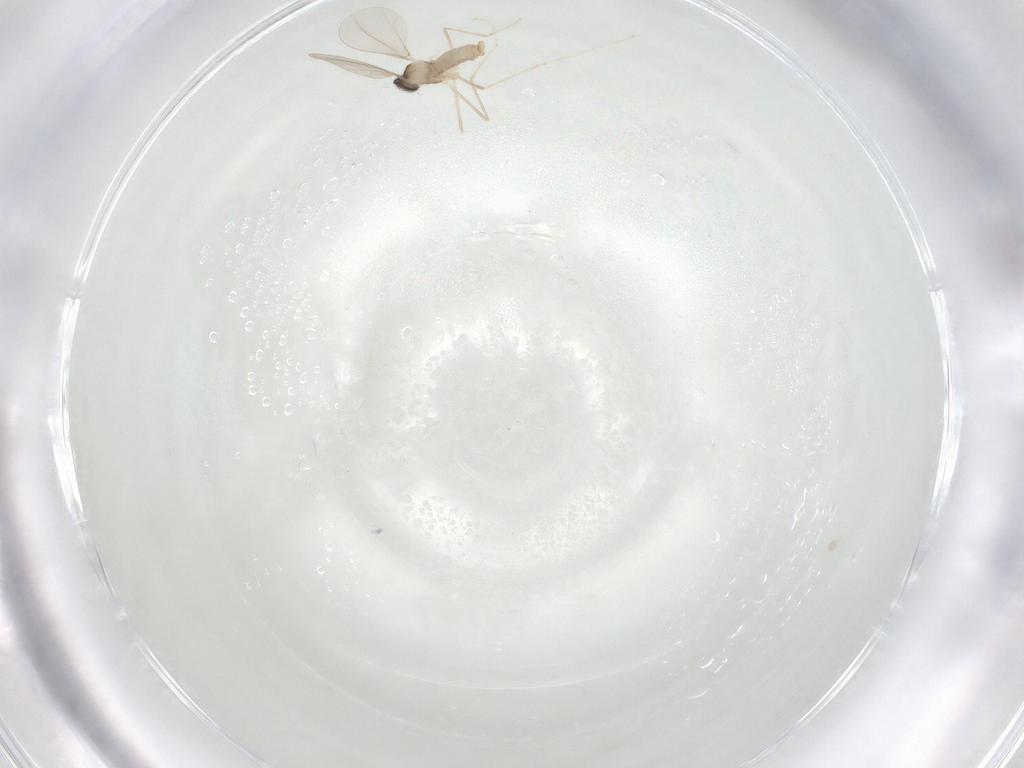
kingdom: Animalia
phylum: Arthropoda
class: Insecta
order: Diptera
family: Cecidomyiidae
